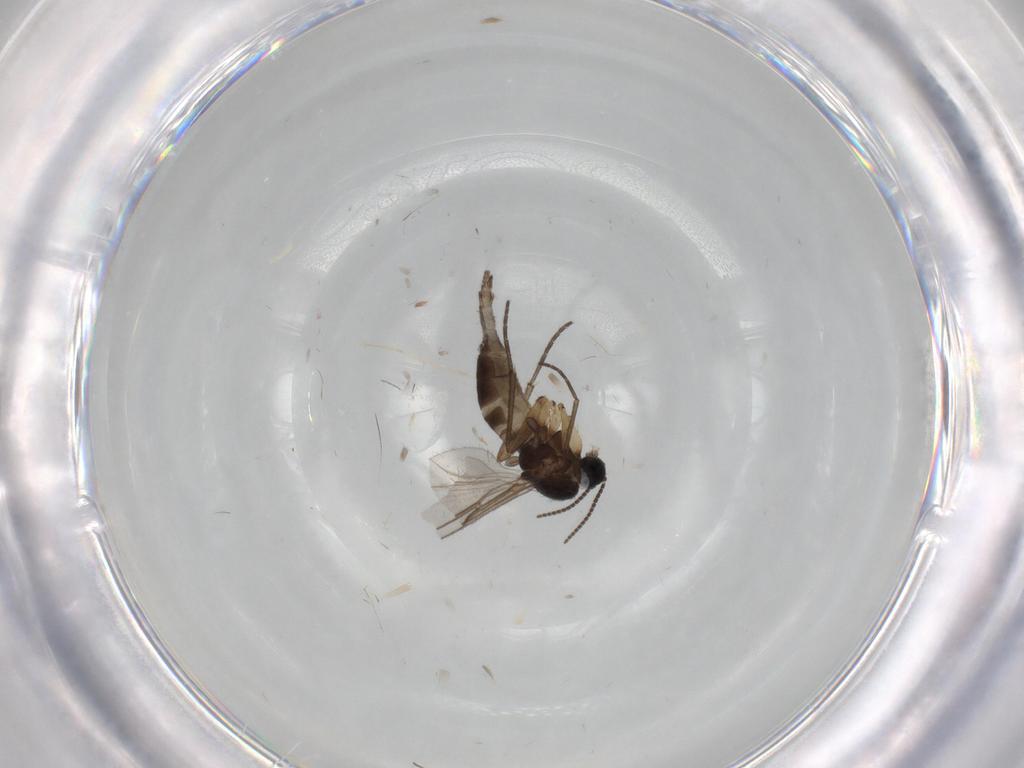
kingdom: Animalia
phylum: Arthropoda
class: Insecta
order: Diptera
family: Sciaridae
